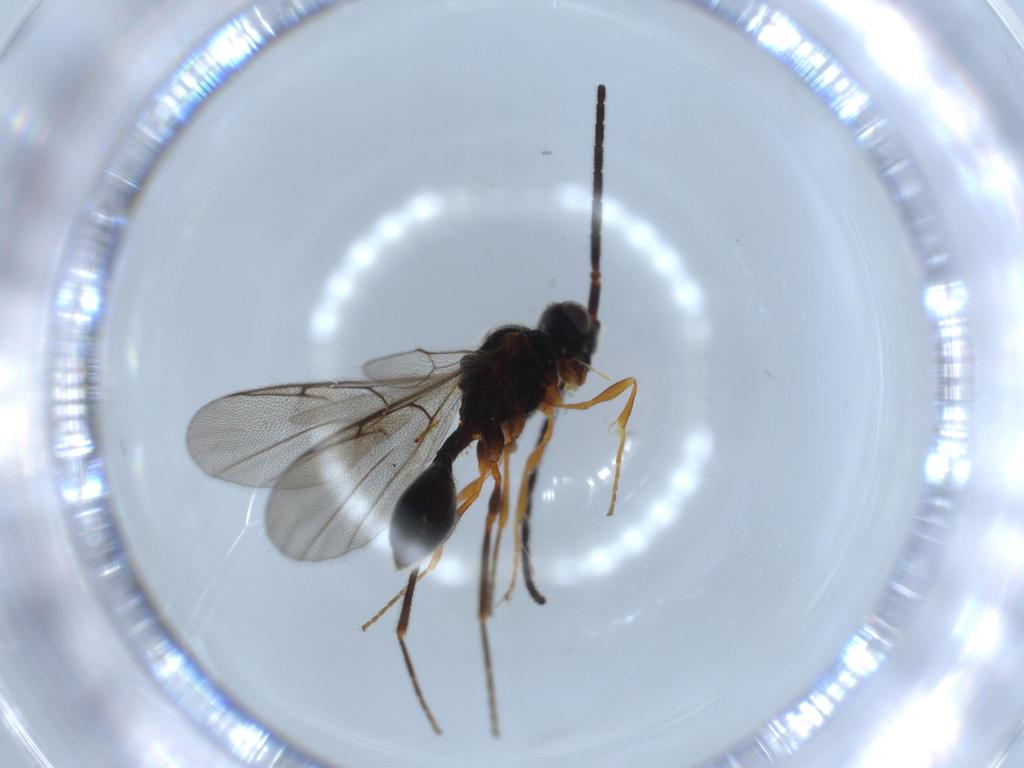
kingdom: Animalia
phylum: Arthropoda
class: Insecta
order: Hymenoptera
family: Diapriidae
